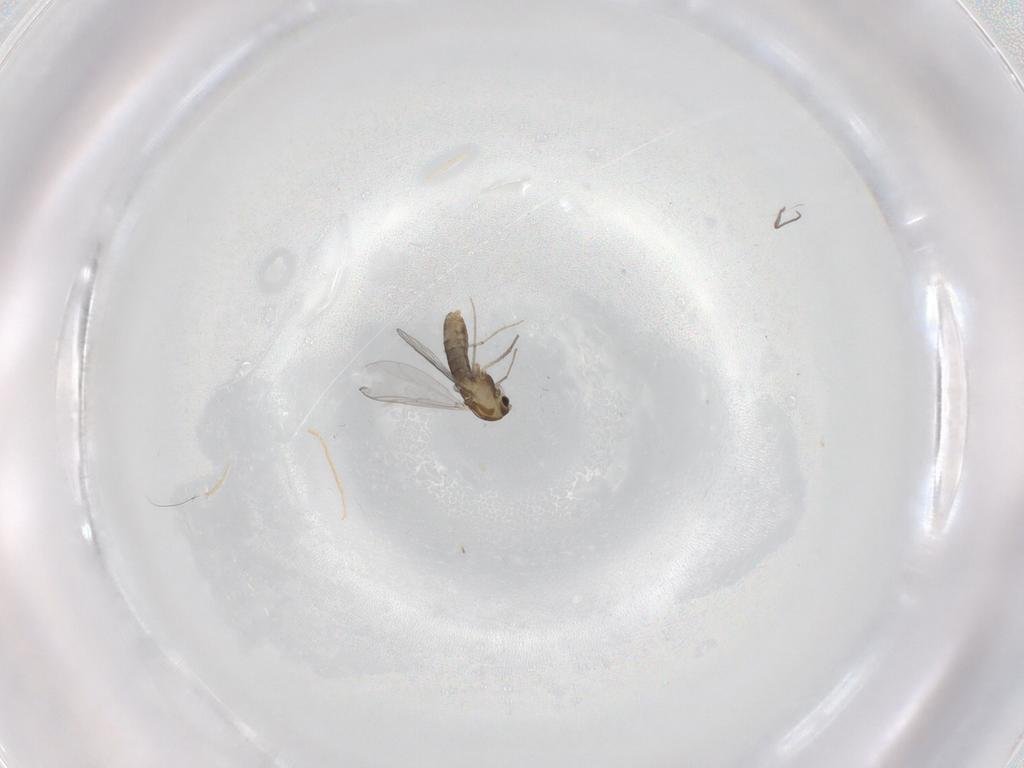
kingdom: Animalia
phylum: Arthropoda
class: Insecta
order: Diptera
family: Chironomidae
